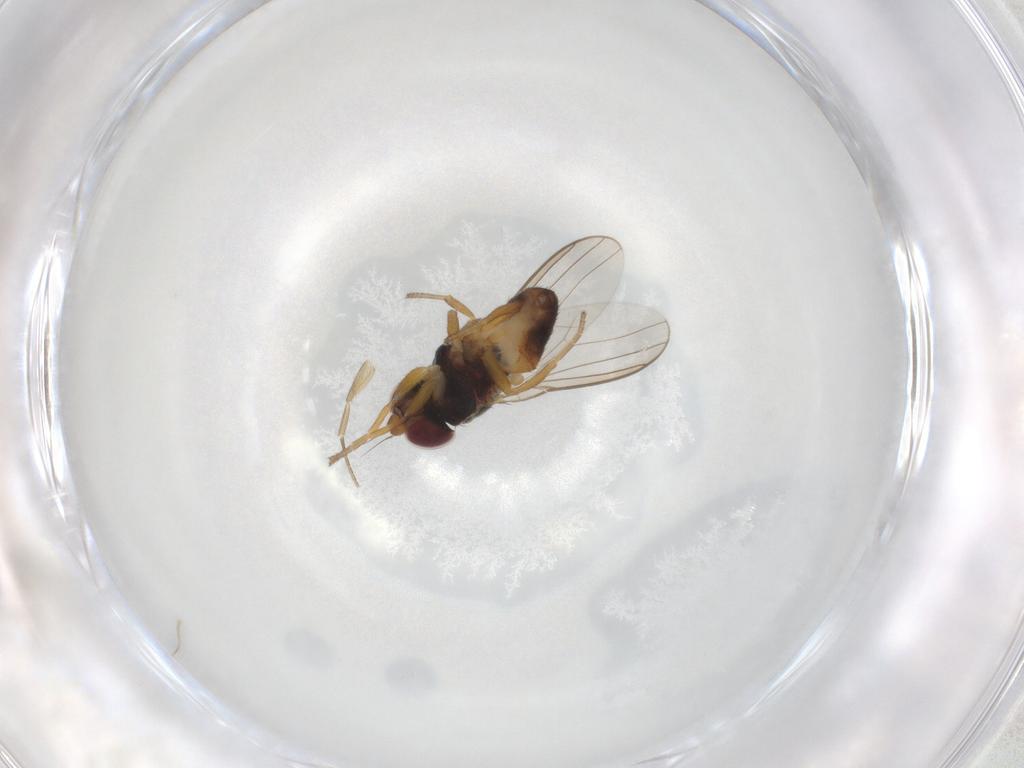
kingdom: Animalia
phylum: Arthropoda
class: Insecta
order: Diptera
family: Chloropidae
